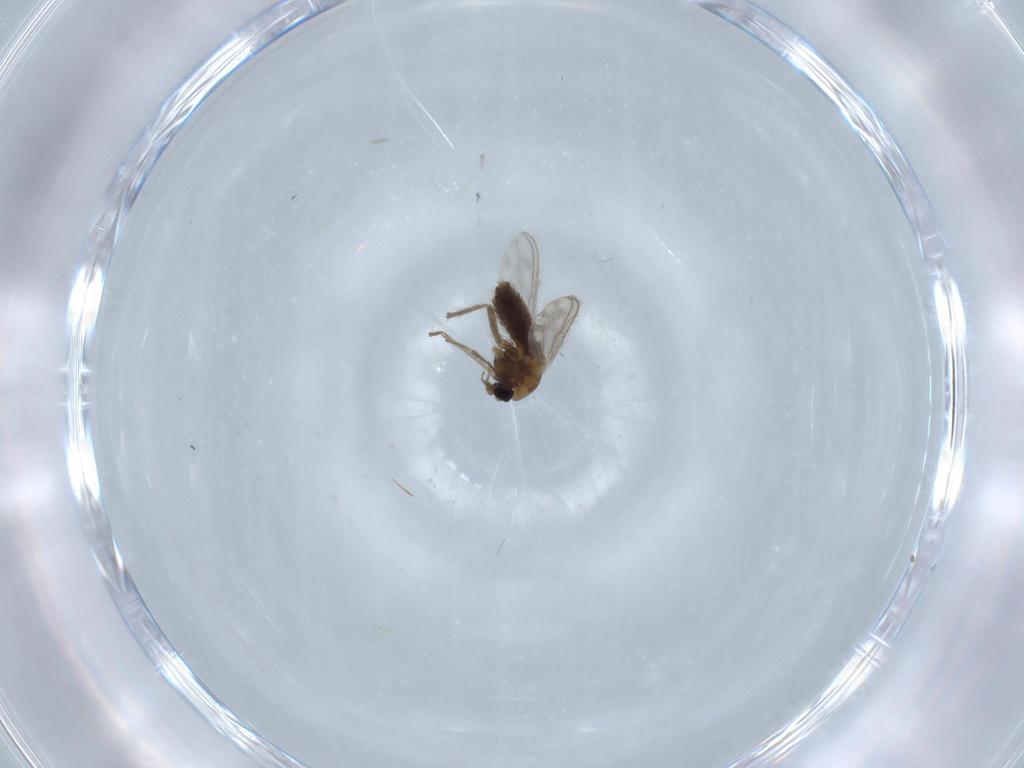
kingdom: Animalia
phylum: Arthropoda
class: Insecta
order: Diptera
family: Chironomidae
